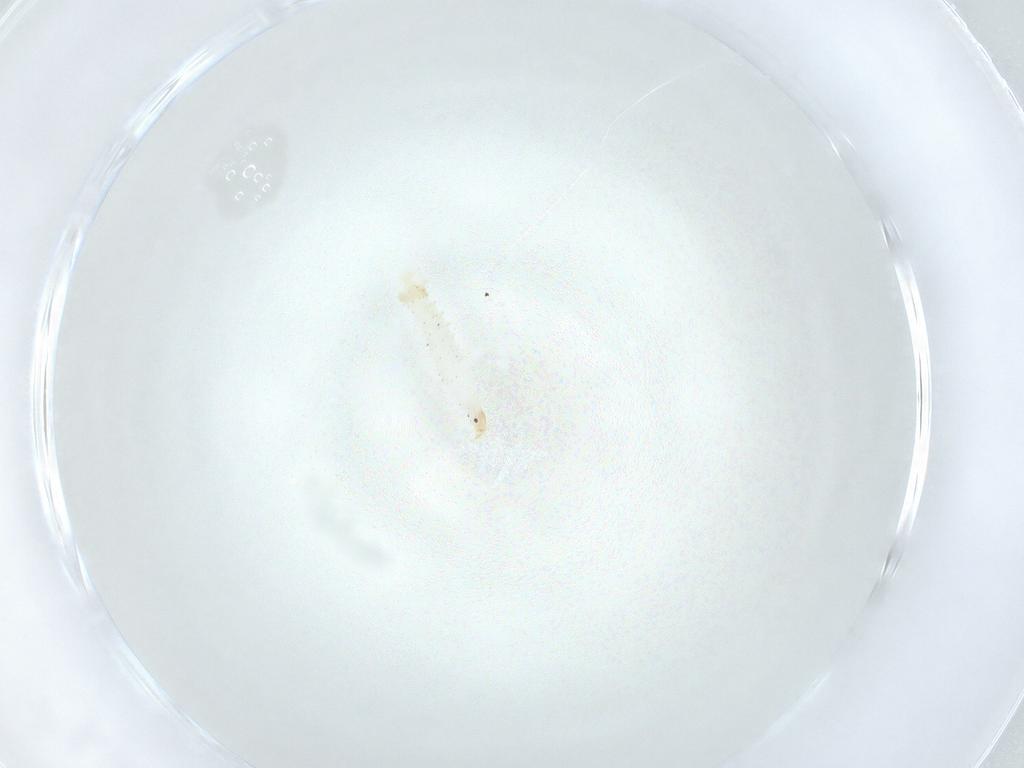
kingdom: Animalia
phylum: Arthropoda
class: Insecta
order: Diptera
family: Stratiomyidae
